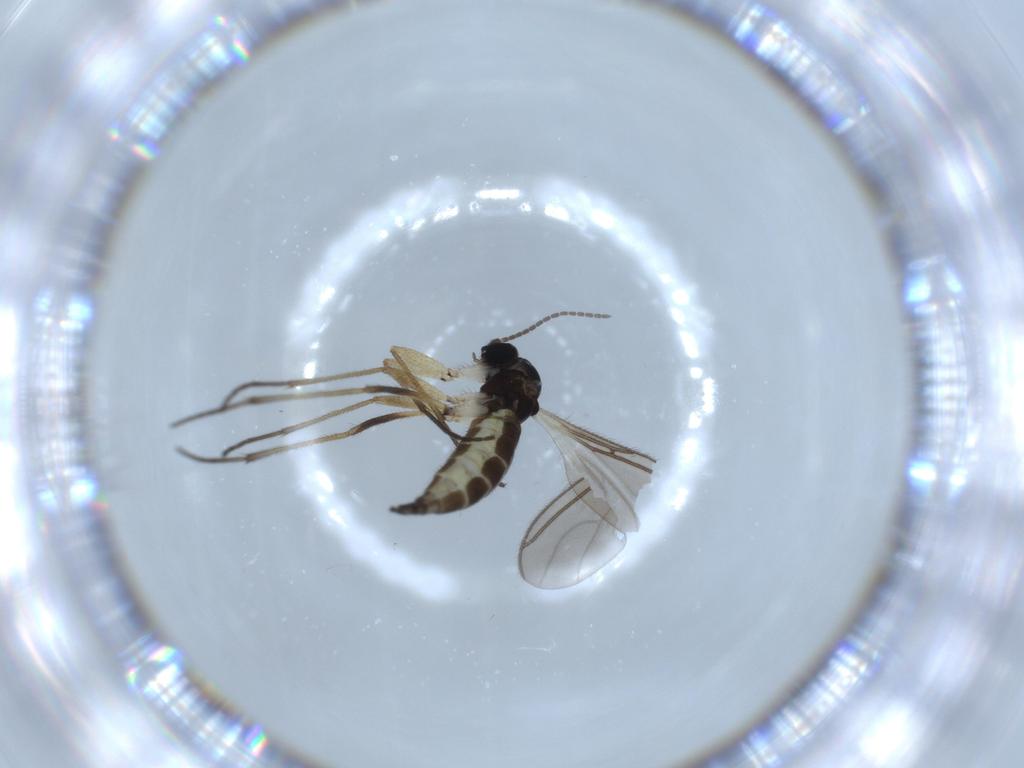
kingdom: Animalia
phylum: Arthropoda
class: Insecta
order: Diptera
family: Sciaridae
